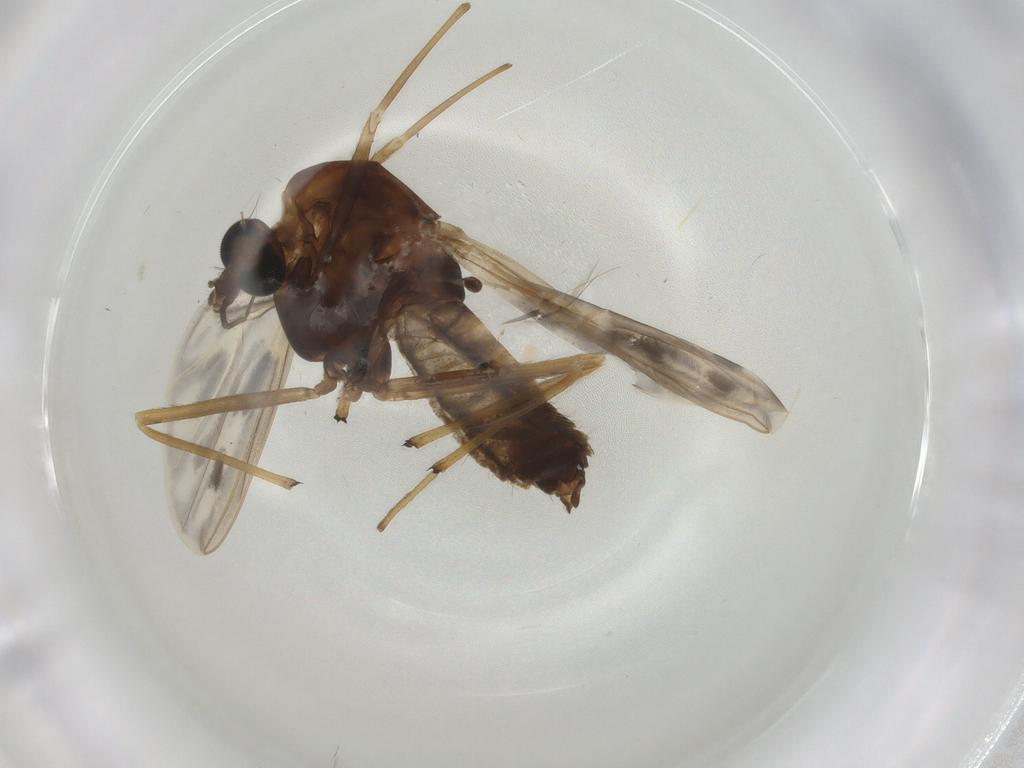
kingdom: Animalia
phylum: Arthropoda
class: Insecta
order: Diptera
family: Chironomidae
